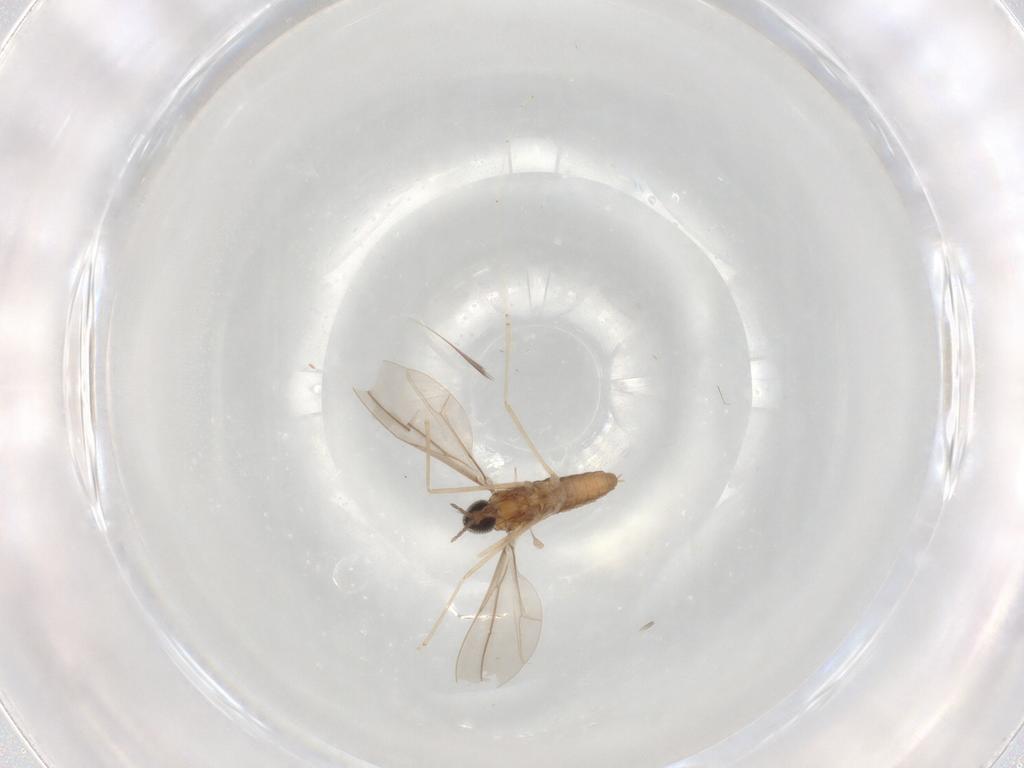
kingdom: Animalia
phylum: Arthropoda
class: Insecta
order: Diptera
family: Cecidomyiidae
